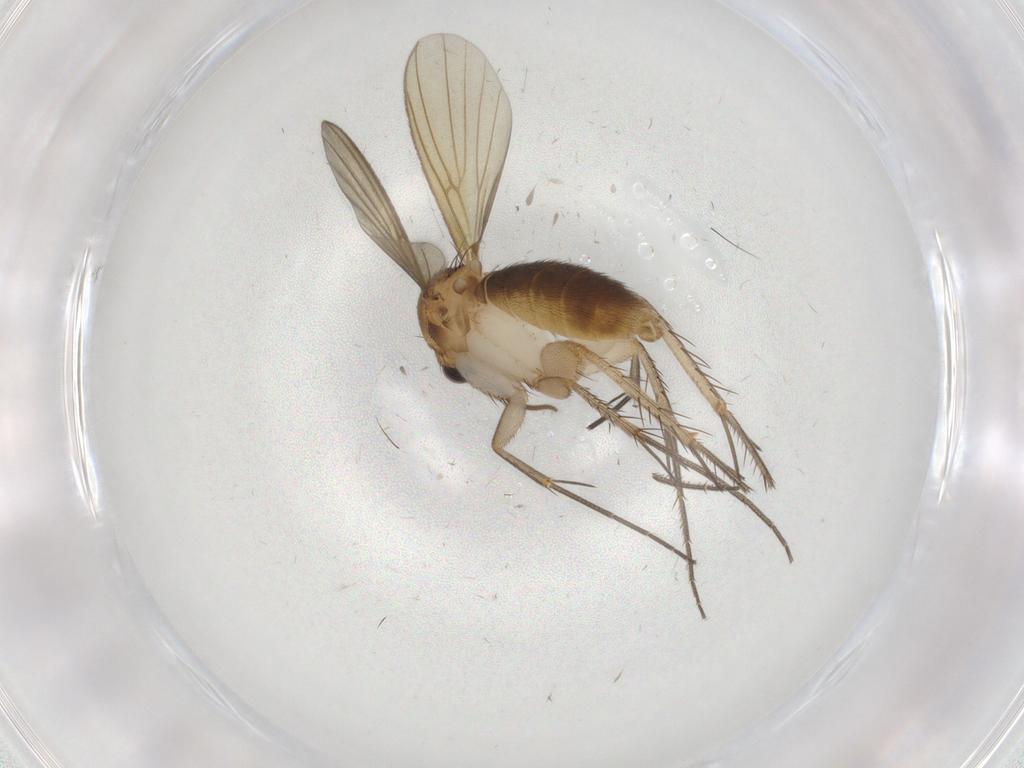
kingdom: Animalia
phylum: Arthropoda
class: Insecta
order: Diptera
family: Mycetophilidae
